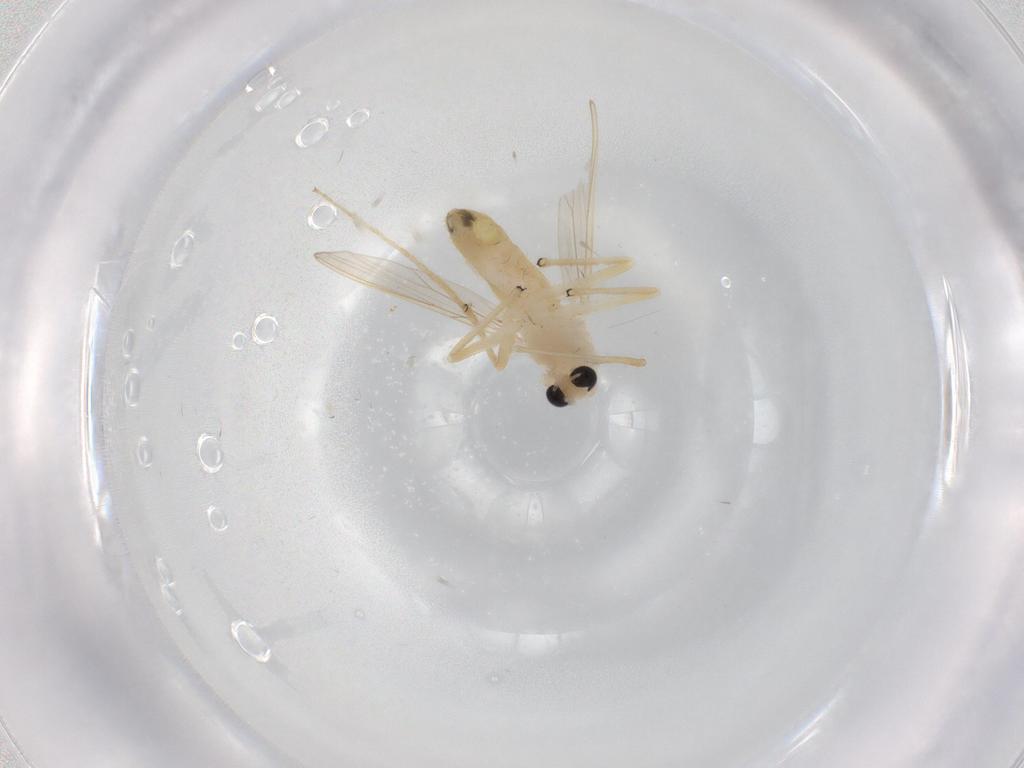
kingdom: Animalia
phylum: Arthropoda
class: Insecta
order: Diptera
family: Chironomidae
